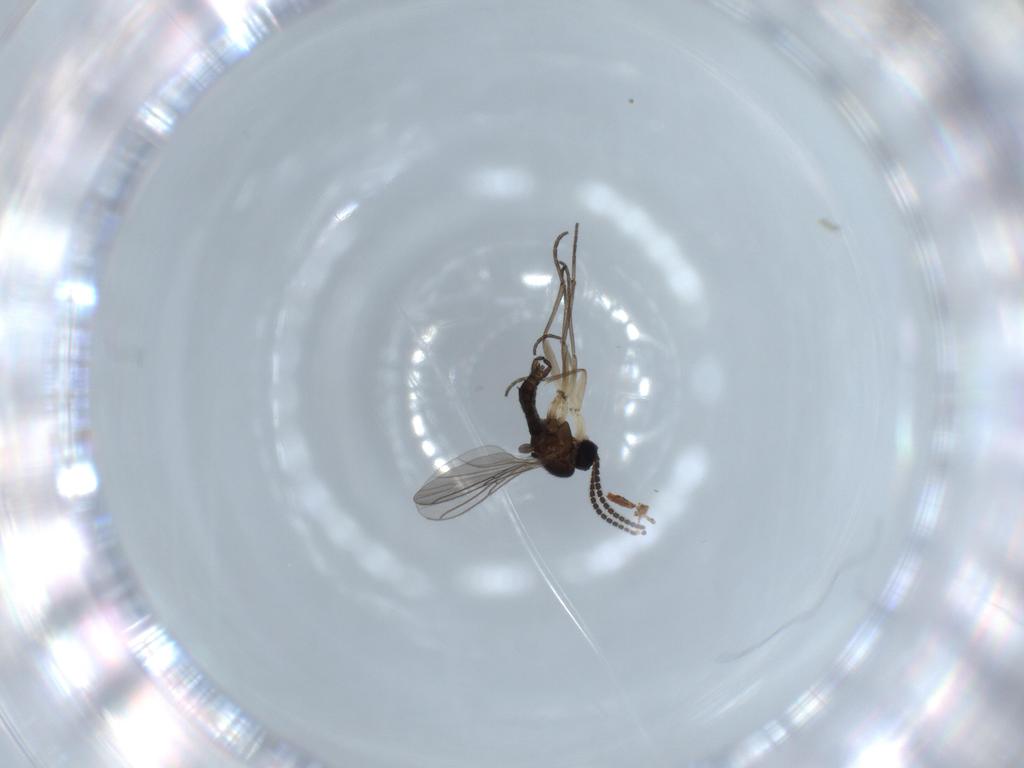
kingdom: Animalia
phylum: Arthropoda
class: Insecta
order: Diptera
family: Sciaridae
